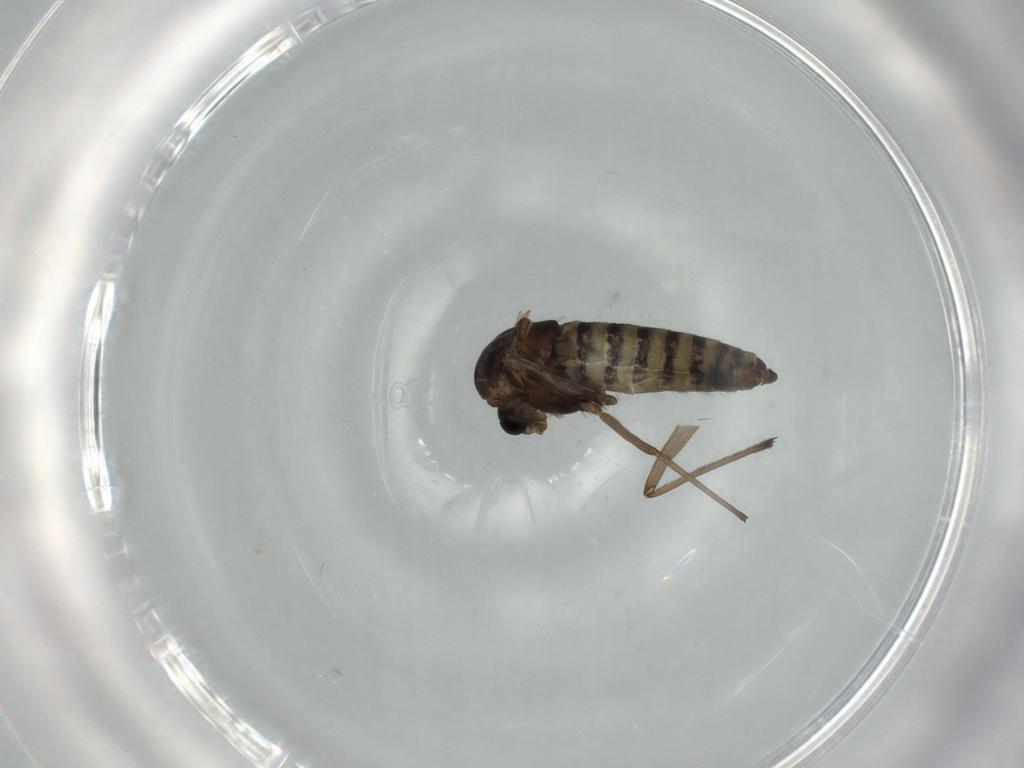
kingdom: Animalia
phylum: Arthropoda
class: Insecta
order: Diptera
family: Chironomidae
